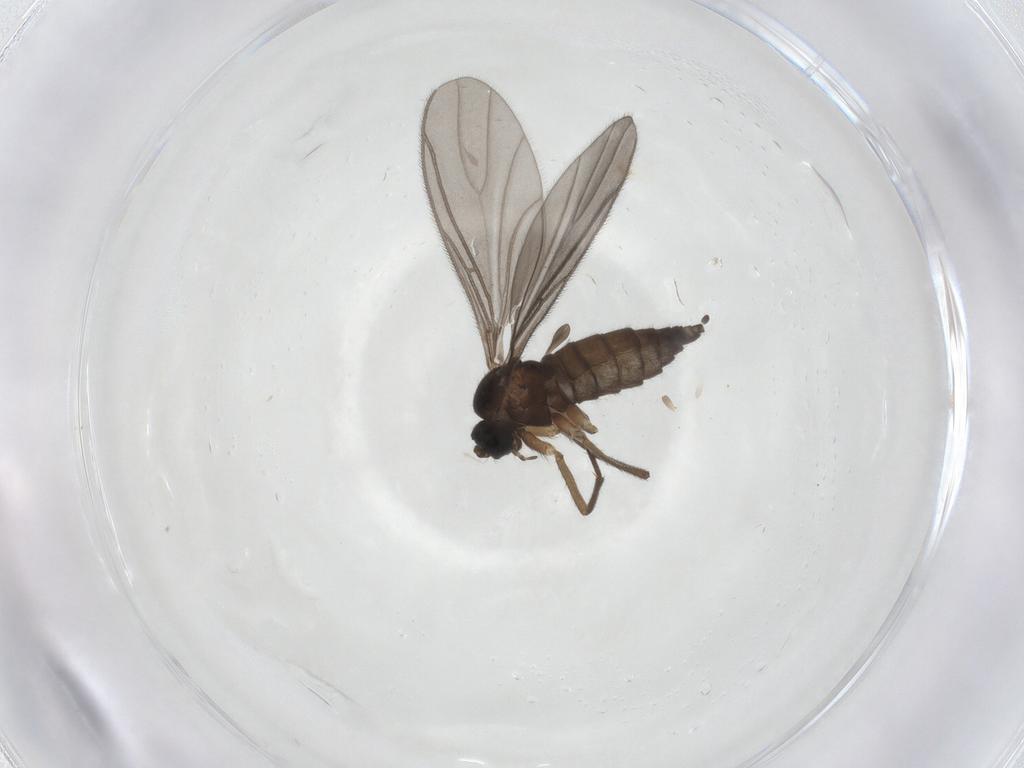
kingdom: Animalia
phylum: Arthropoda
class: Insecta
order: Diptera
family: Sciaridae
